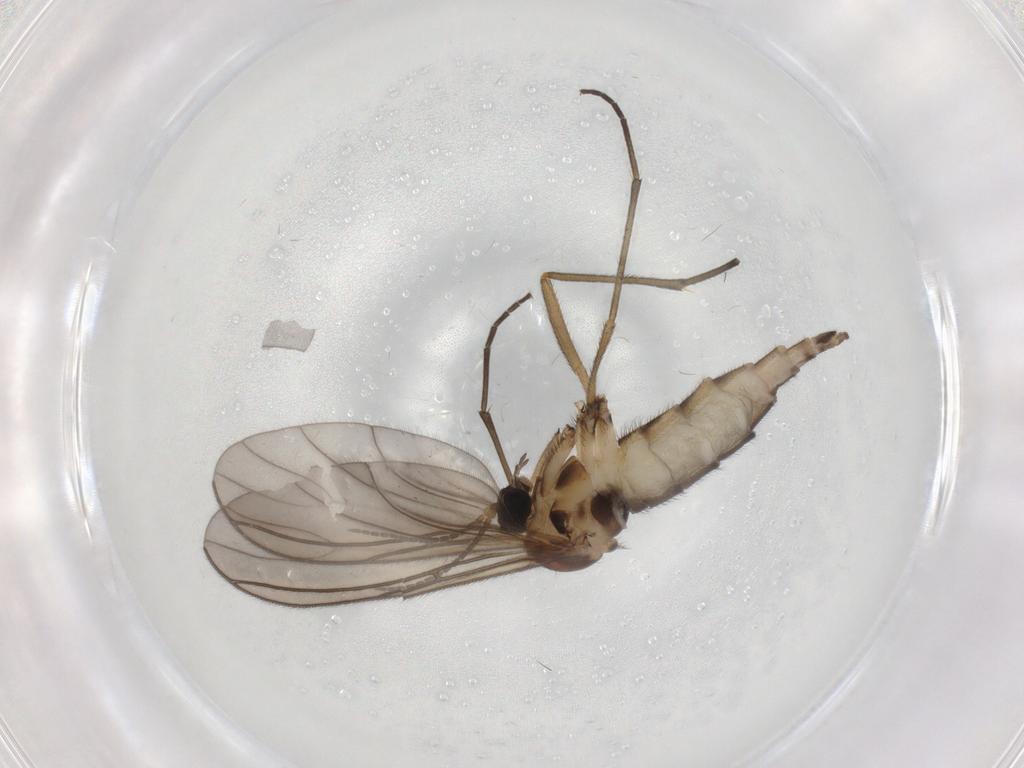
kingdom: Animalia
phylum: Arthropoda
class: Insecta
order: Diptera
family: Sciaridae
